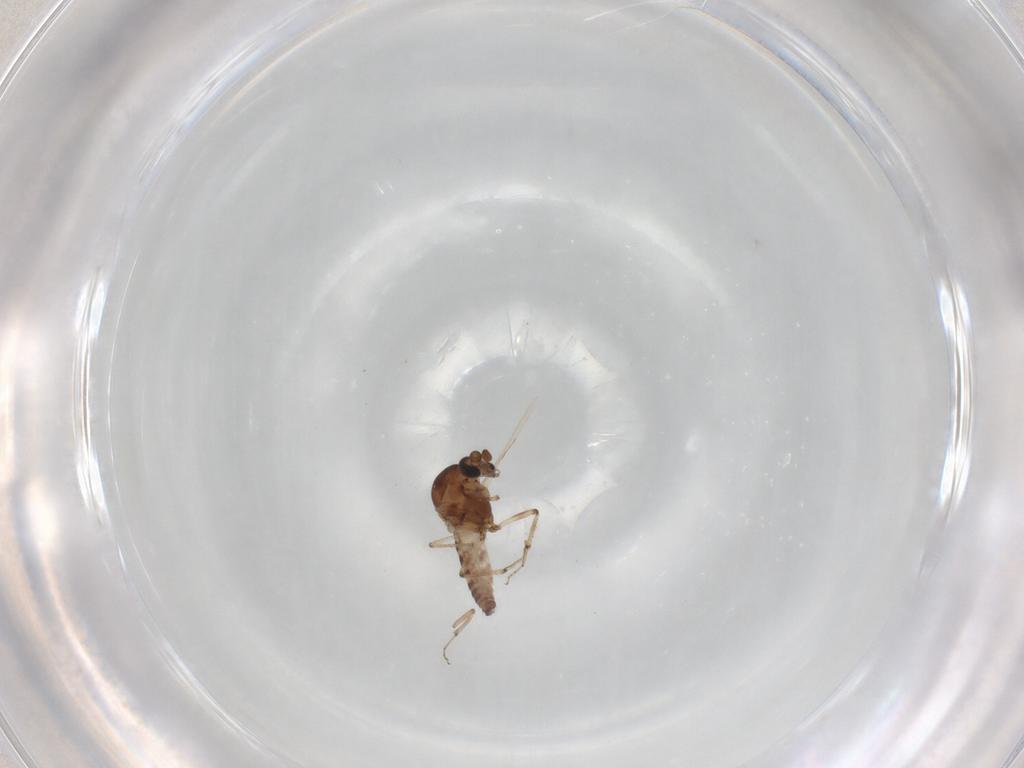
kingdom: Animalia
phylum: Arthropoda
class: Insecta
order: Diptera
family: Ceratopogonidae
